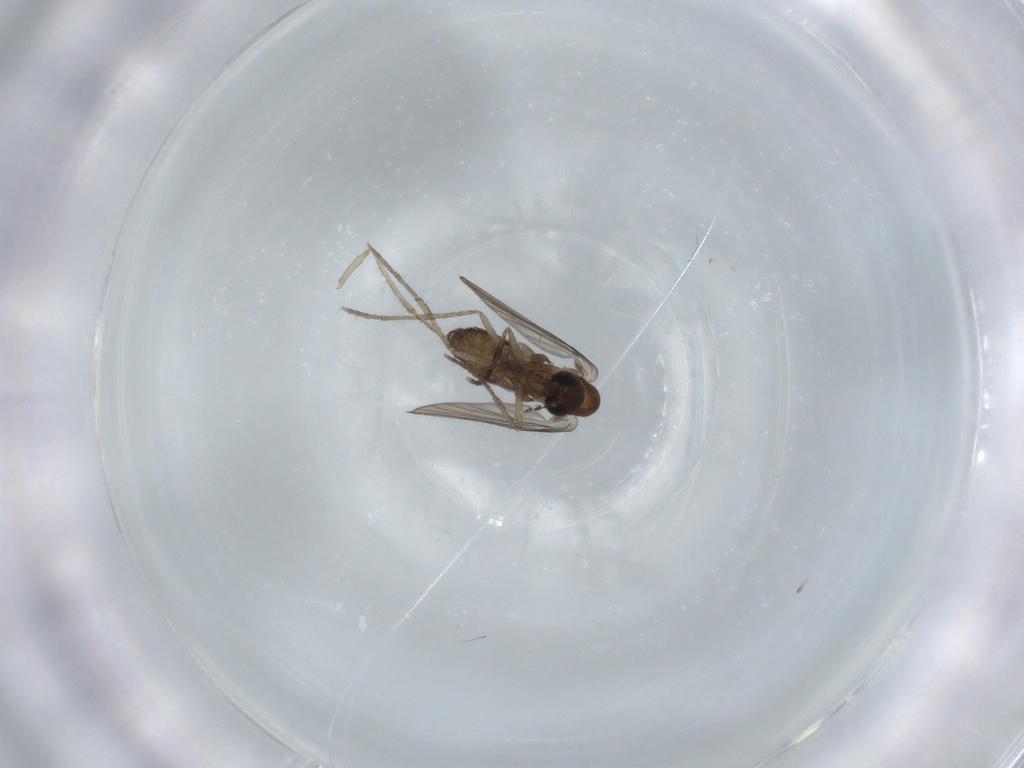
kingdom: Animalia
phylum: Arthropoda
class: Insecta
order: Diptera
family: Psychodidae
